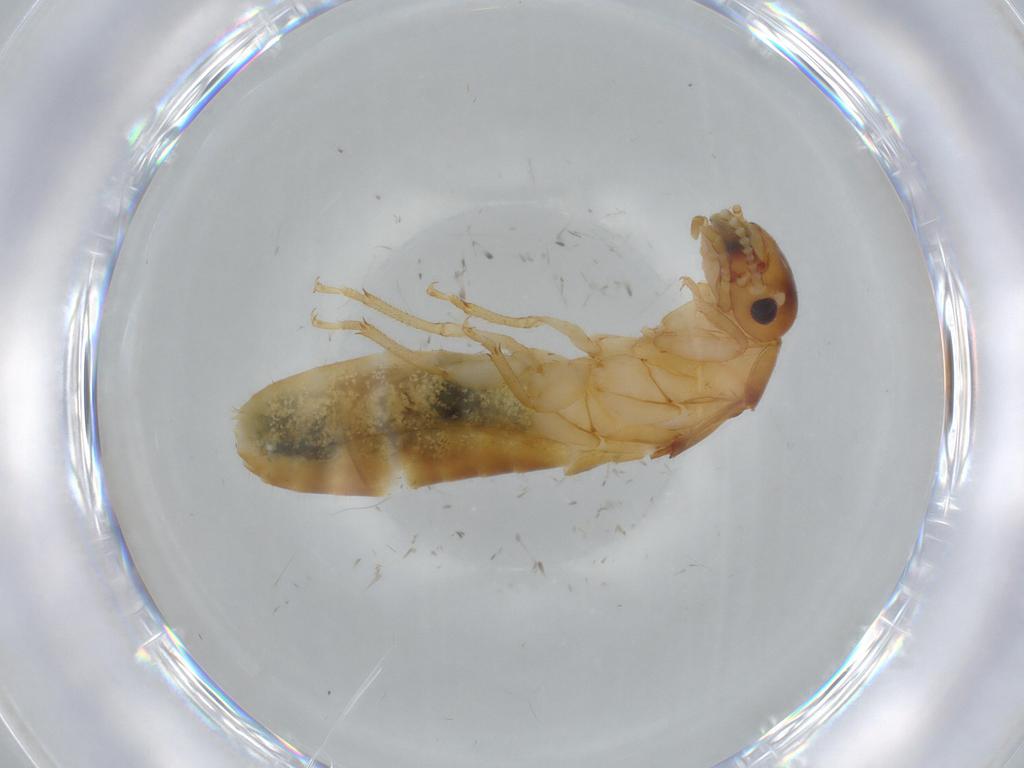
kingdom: Animalia
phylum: Arthropoda
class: Insecta
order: Blattodea
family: Kalotermitidae
